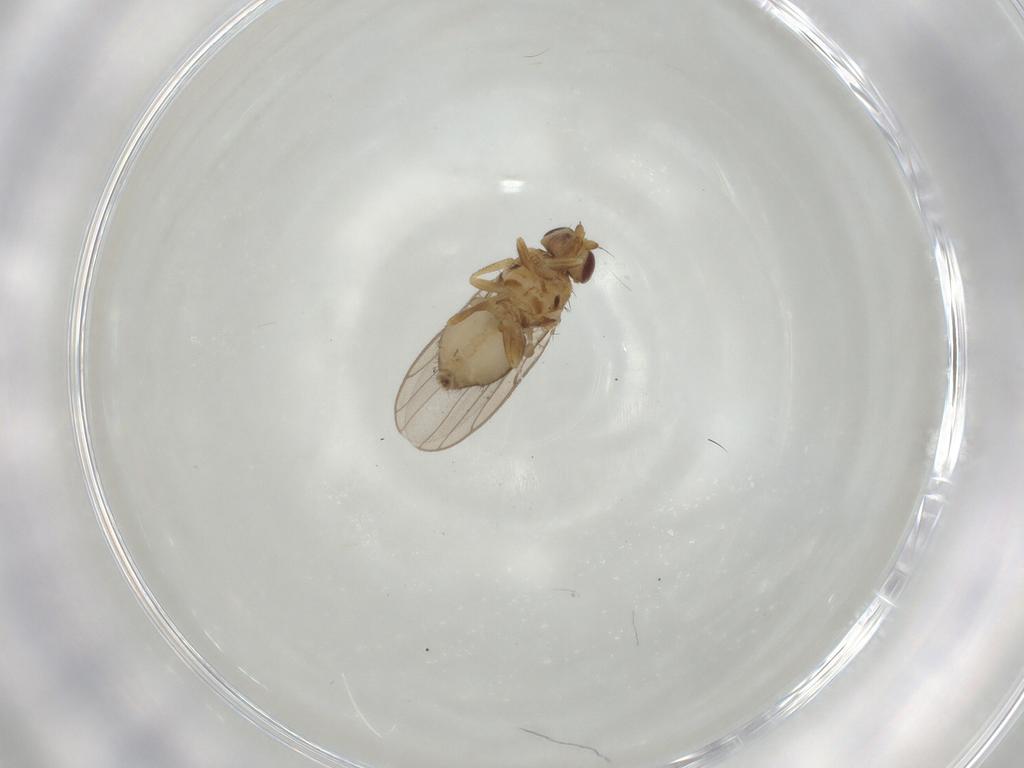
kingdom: Animalia
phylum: Arthropoda
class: Insecta
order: Diptera
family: Chloropidae
